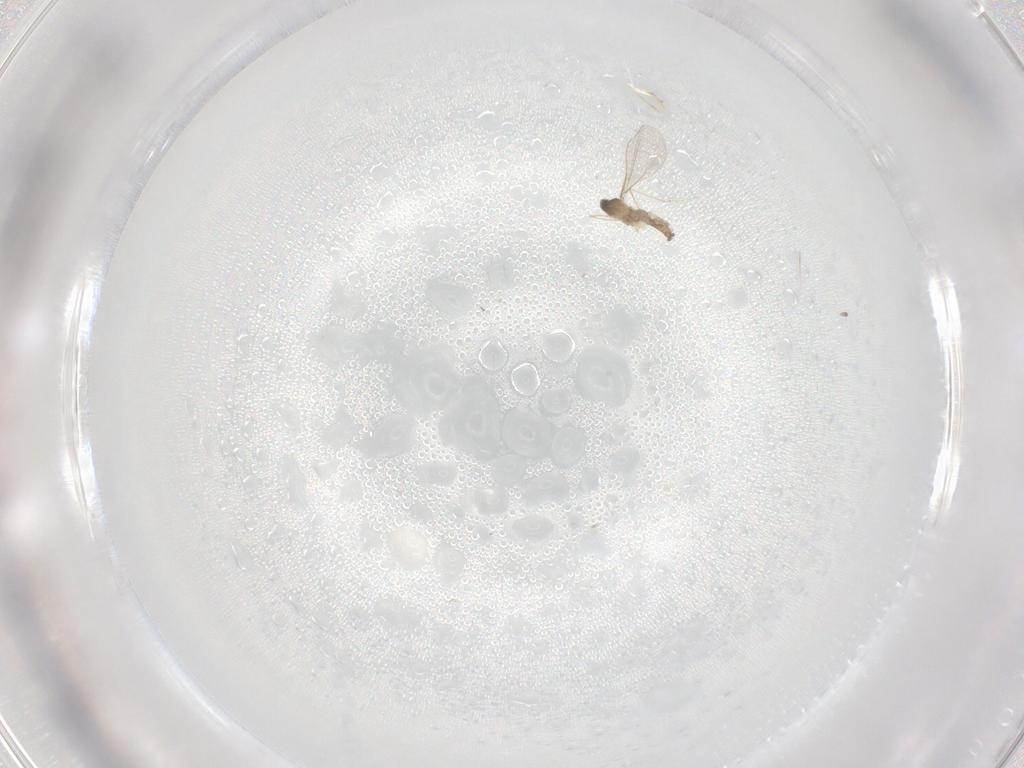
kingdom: Animalia
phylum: Arthropoda
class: Insecta
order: Diptera
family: Cecidomyiidae
